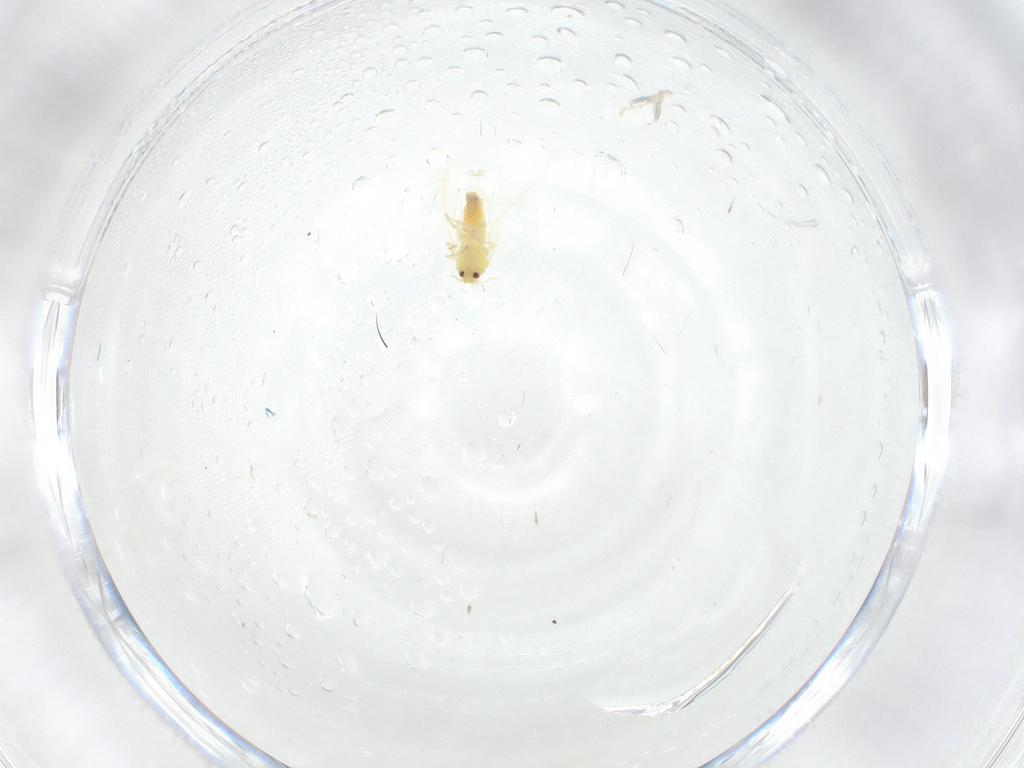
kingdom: Animalia
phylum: Arthropoda
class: Insecta
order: Hemiptera
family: Aleyrodidae
